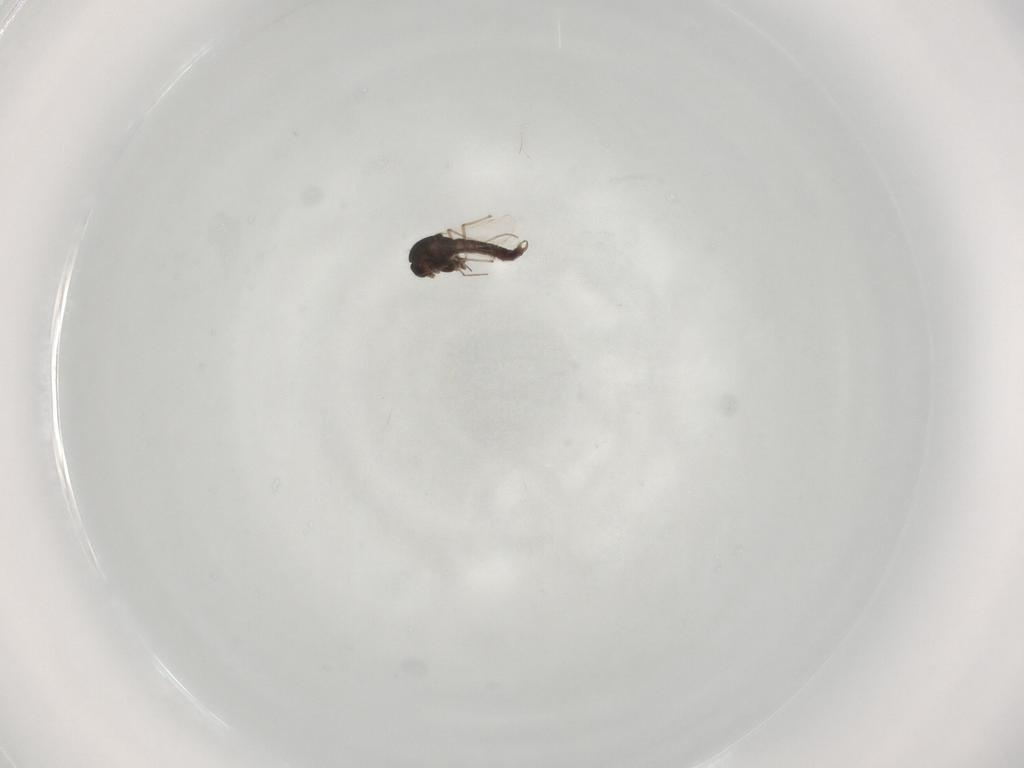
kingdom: Animalia
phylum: Arthropoda
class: Insecta
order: Diptera
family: Chironomidae
